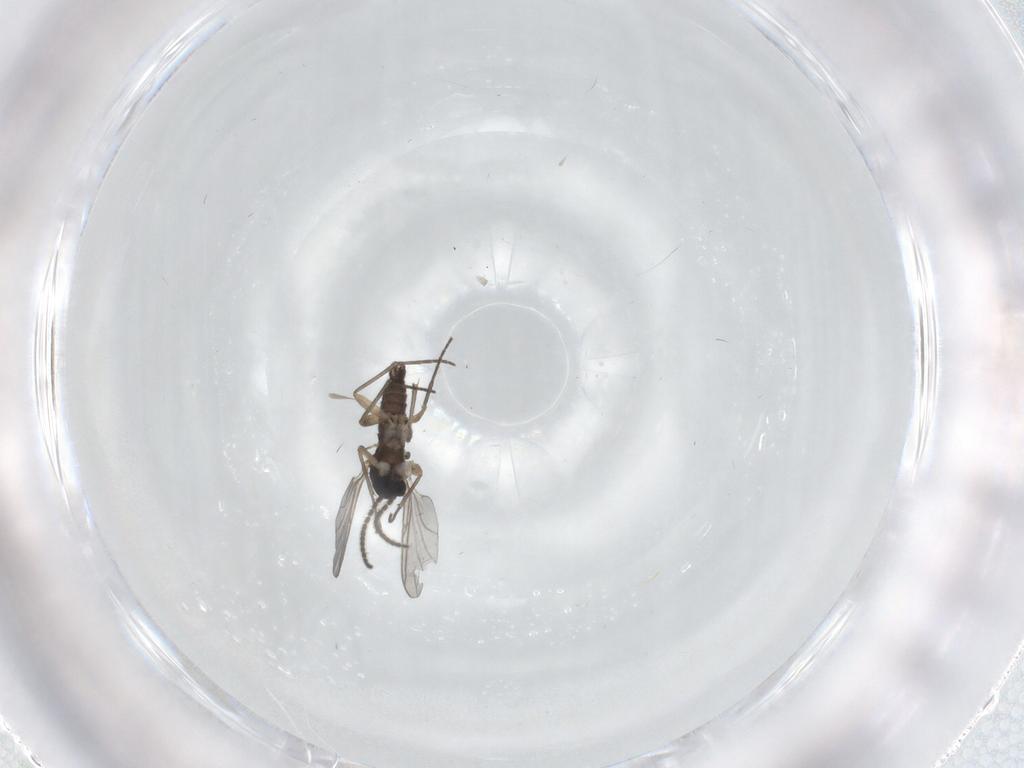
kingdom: Animalia
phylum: Arthropoda
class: Insecta
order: Diptera
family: Sciaridae
